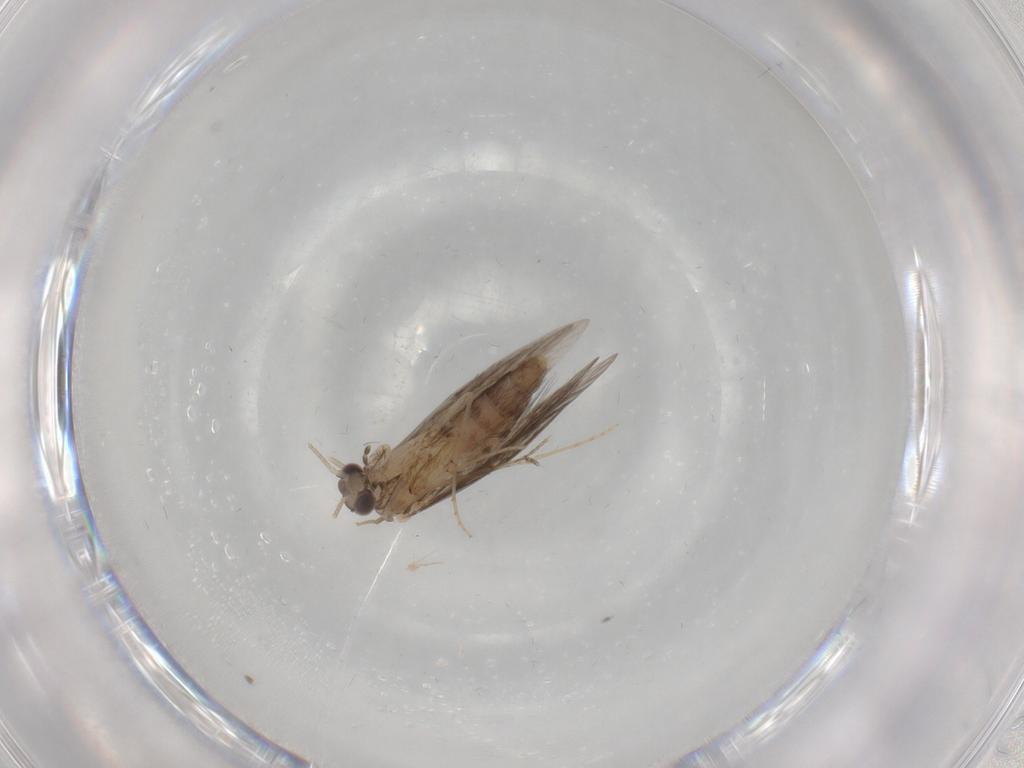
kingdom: Animalia
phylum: Arthropoda
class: Insecta
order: Trichoptera
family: Hydroptilidae
